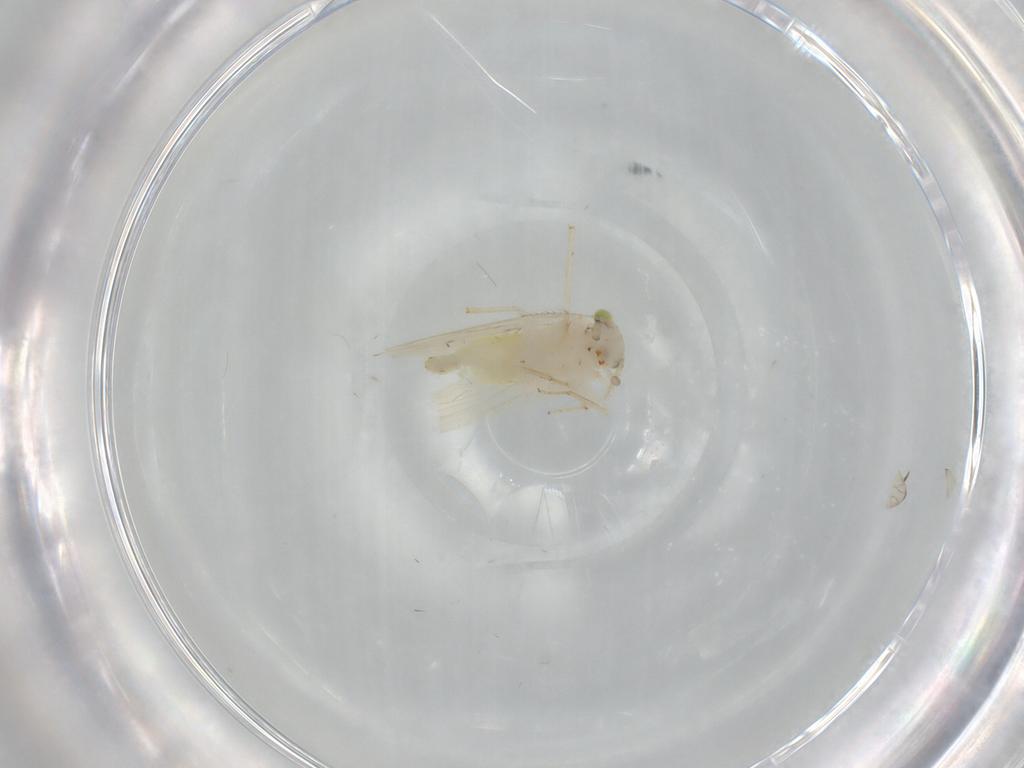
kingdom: Animalia
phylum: Arthropoda
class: Insecta
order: Psocodea
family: Lepidopsocidae
